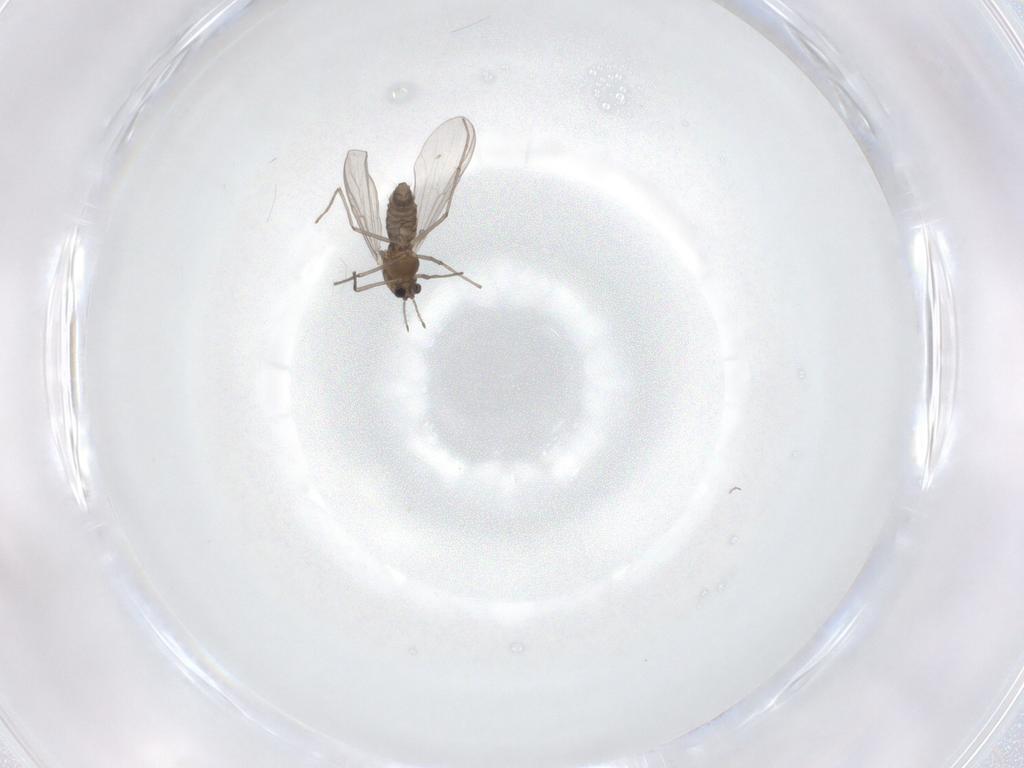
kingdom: Animalia
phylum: Arthropoda
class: Insecta
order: Diptera
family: Chironomidae
